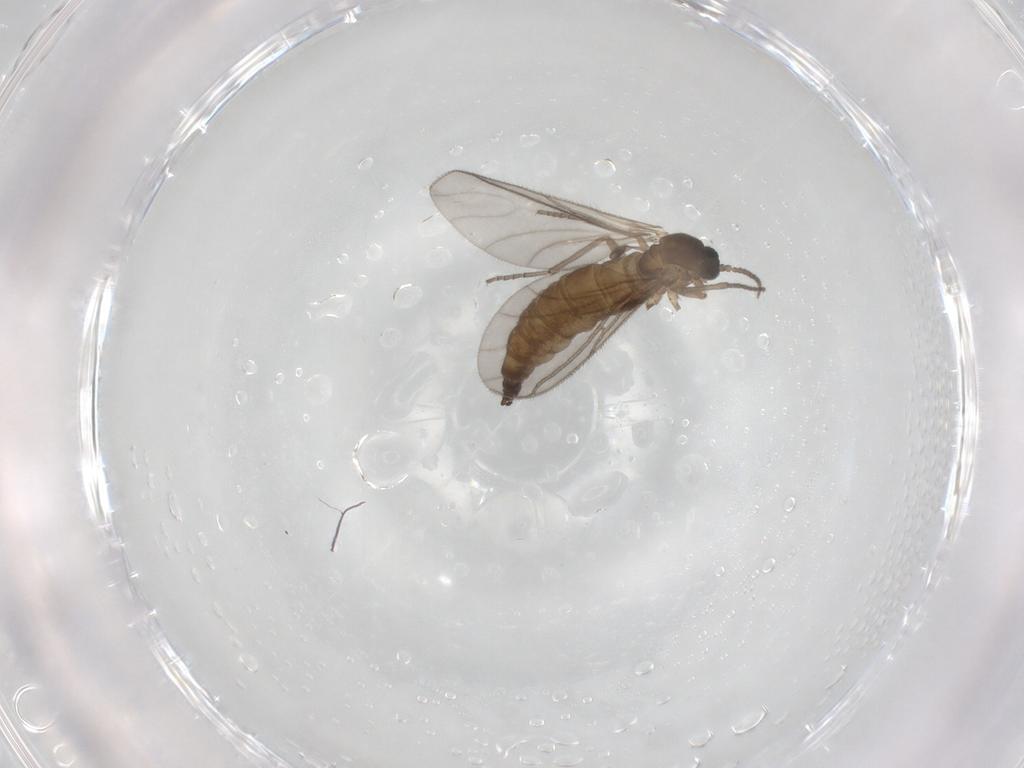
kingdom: Animalia
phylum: Arthropoda
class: Insecta
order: Diptera
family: Sciaridae
